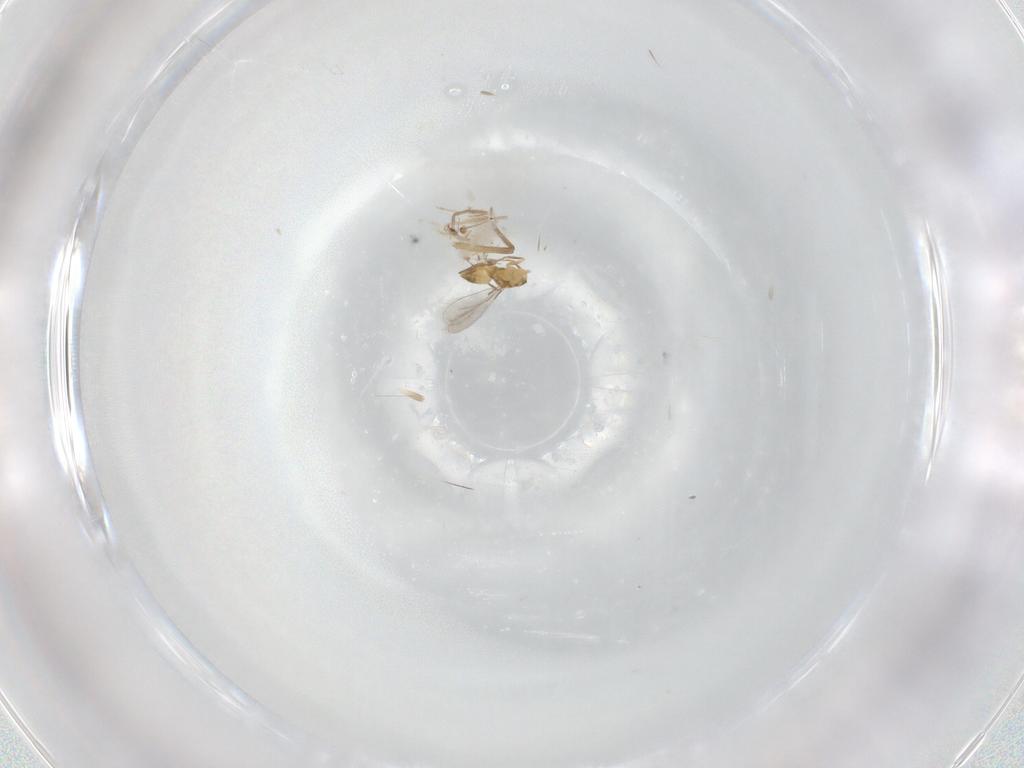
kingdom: Animalia
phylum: Arthropoda
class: Insecta
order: Hymenoptera
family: Mymaridae
